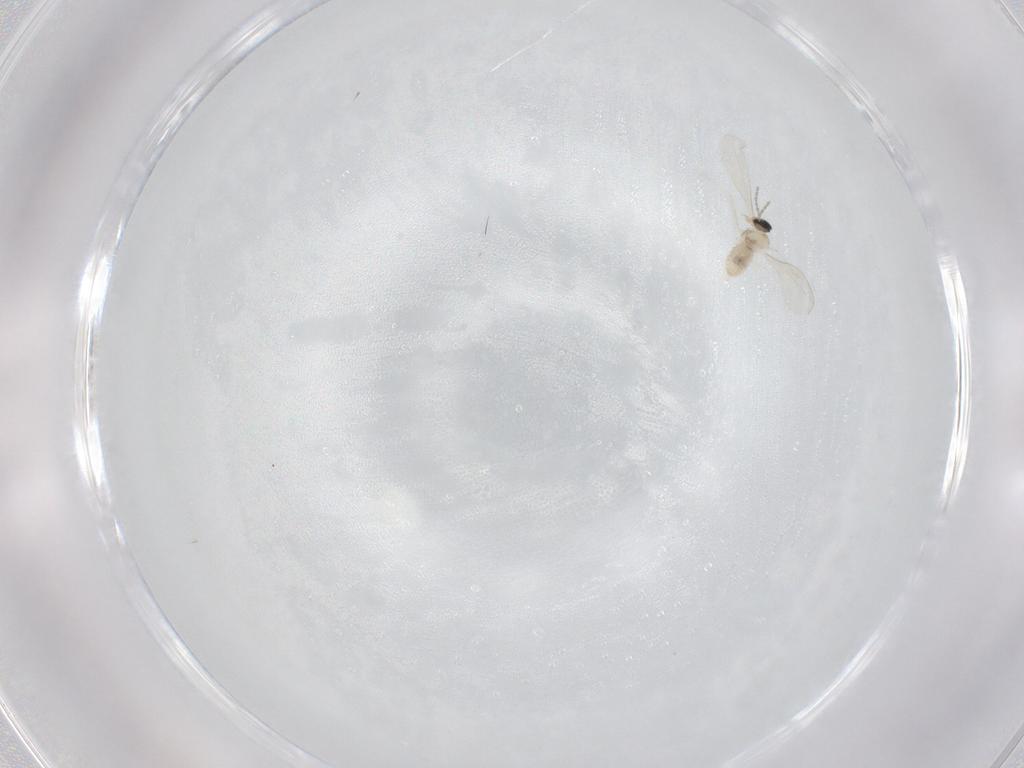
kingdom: Animalia
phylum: Arthropoda
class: Insecta
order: Diptera
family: Cecidomyiidae
